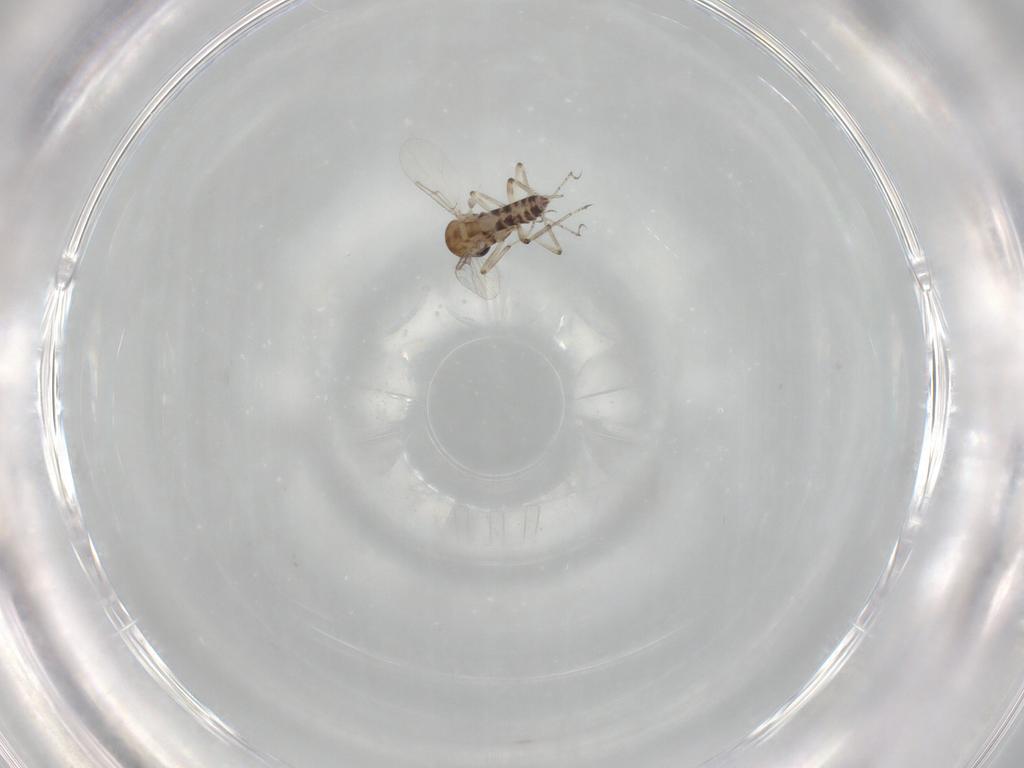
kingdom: Animalia
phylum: Arthropoda
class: Insecta
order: Diptera
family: Ceratopogonidae
